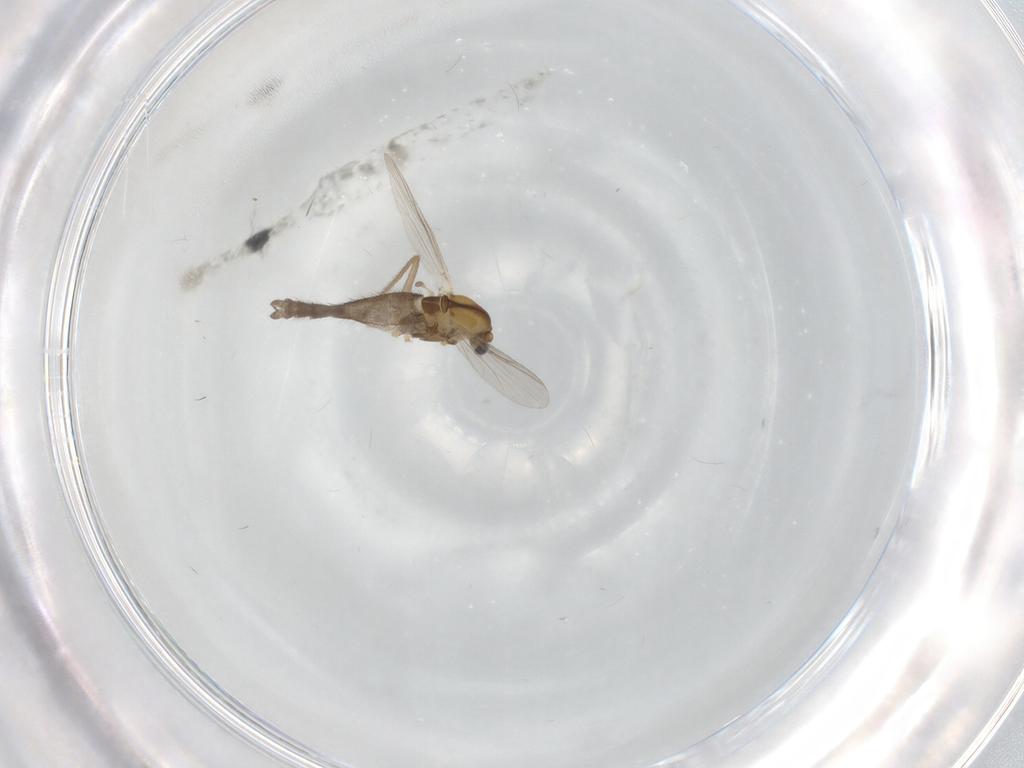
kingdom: Animalia
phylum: Arthropoda
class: Insecta
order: Diptera
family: Chironomidae
